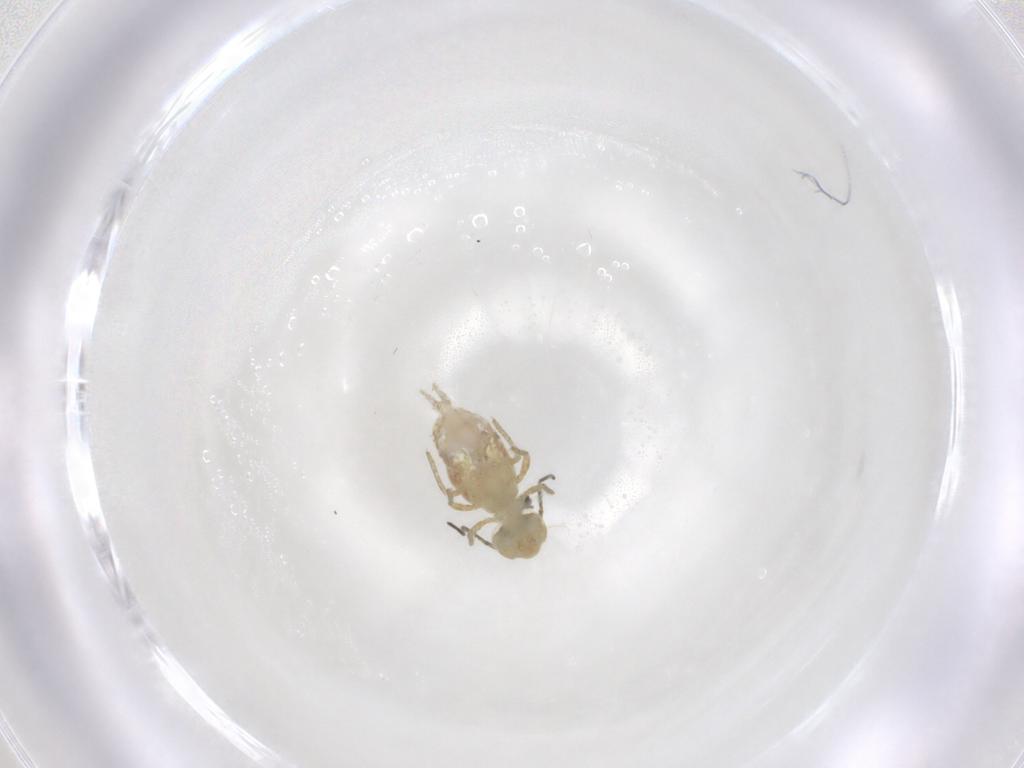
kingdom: Animalia
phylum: Arthropoda
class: Collembola
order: Symphypleona
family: Sminthuridae
